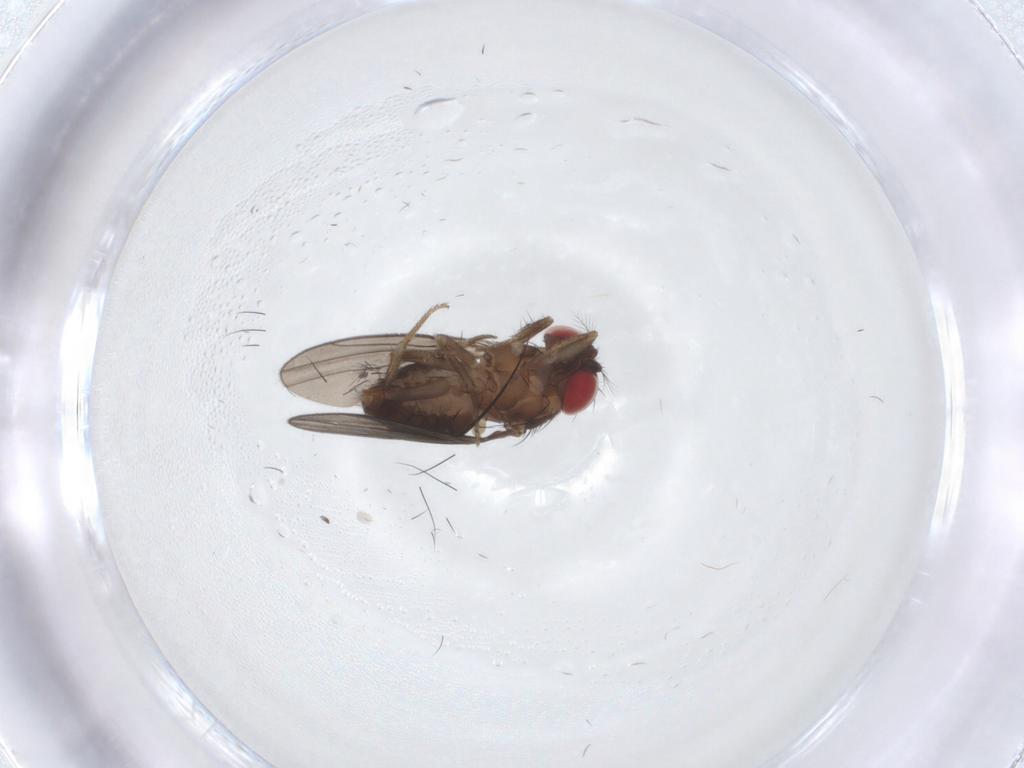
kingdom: Animalia
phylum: Arthropoda
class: Insecta
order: Diptera
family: Drosophilidae
